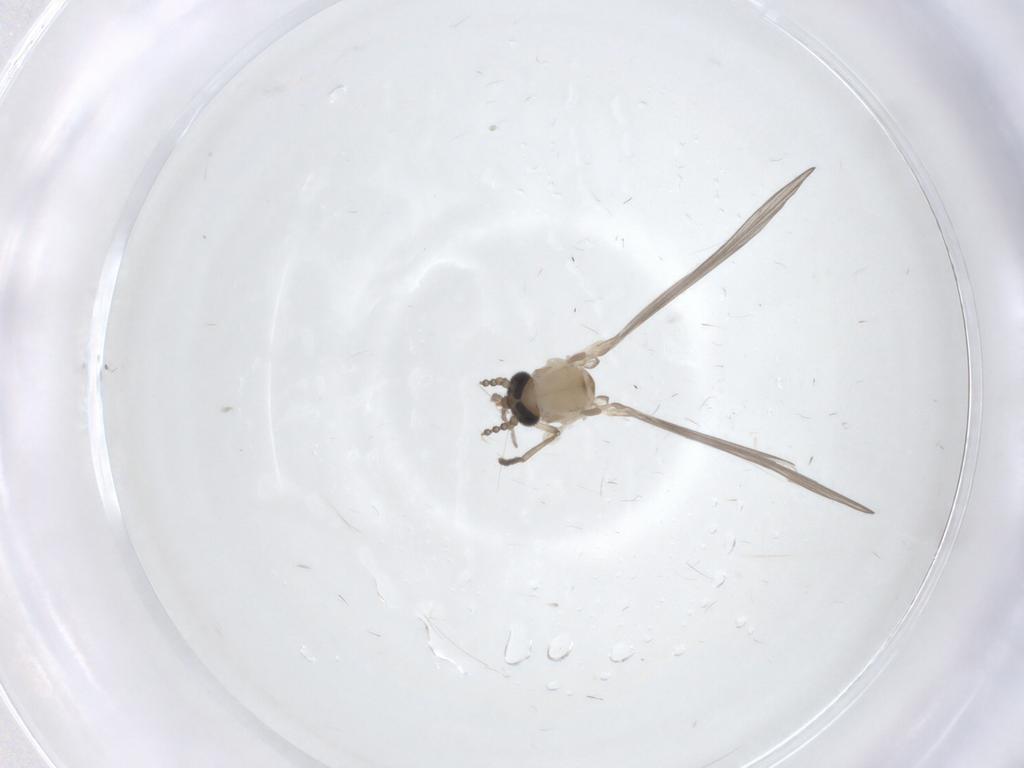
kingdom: Animalia
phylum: Arthropoda
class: Insecta
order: Diptera
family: Psychodidae
